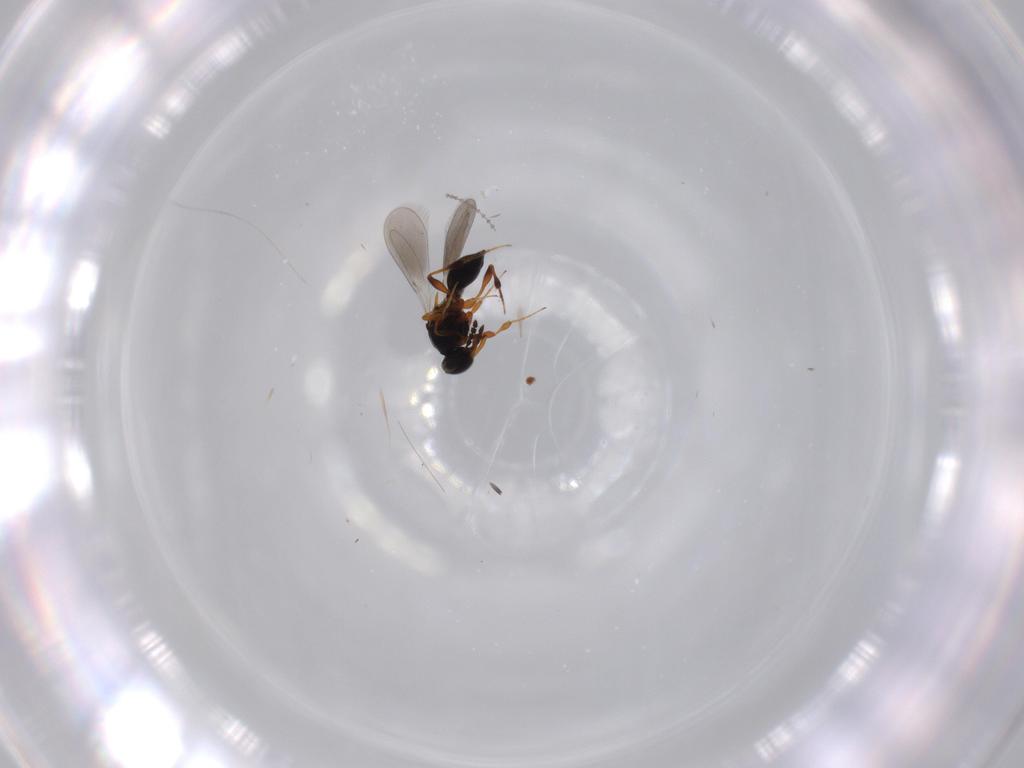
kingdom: Animalia
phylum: Arthropoda
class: Insecta
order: Hymenoptera
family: Platygastridae
